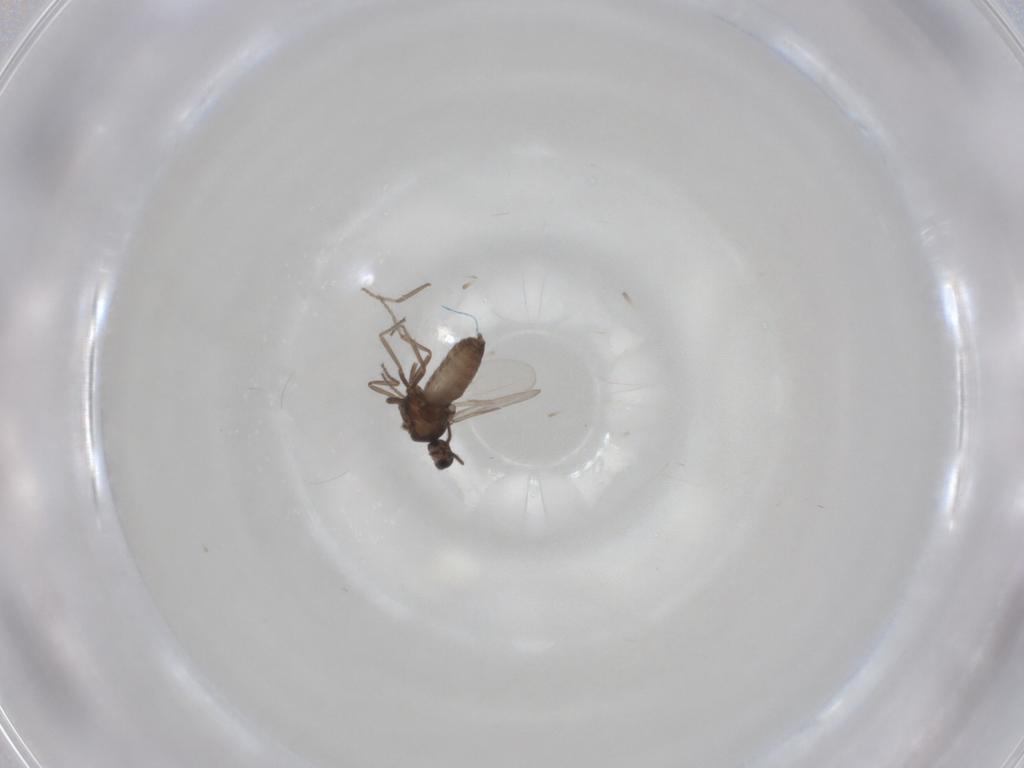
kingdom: Animalia
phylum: Arthropoda
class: Insecta
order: Diptera
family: Ceratopogonidae
